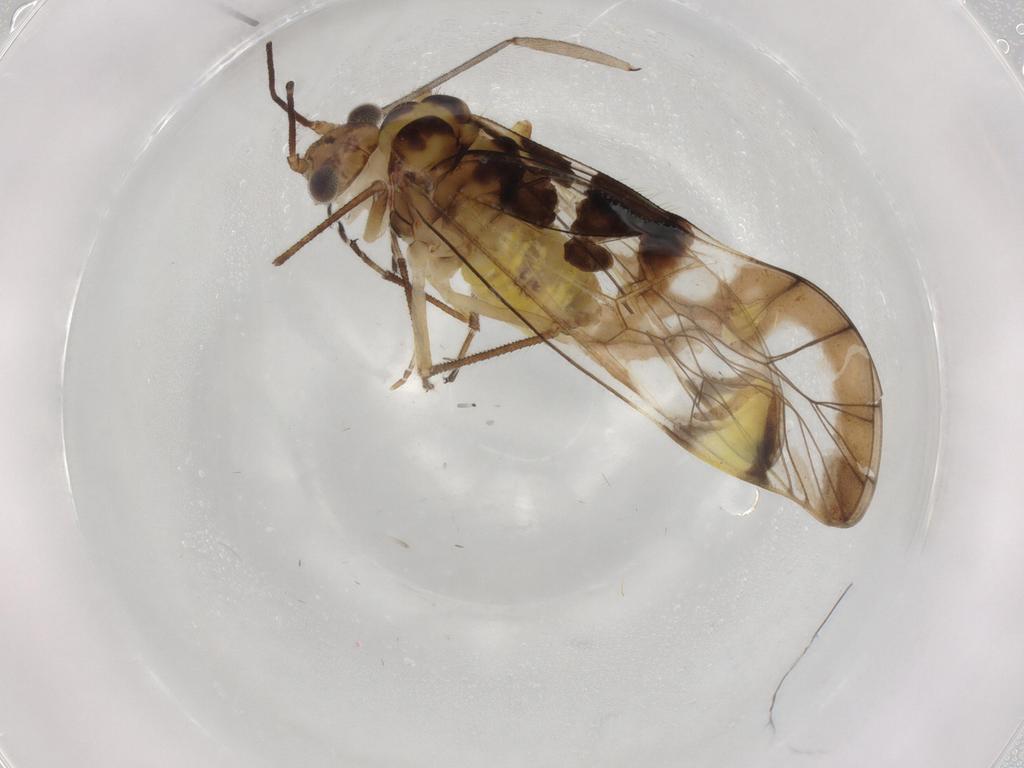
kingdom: Animalia
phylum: Arthropoda
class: Insecta
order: Psocodea
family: Amphipsocidae
